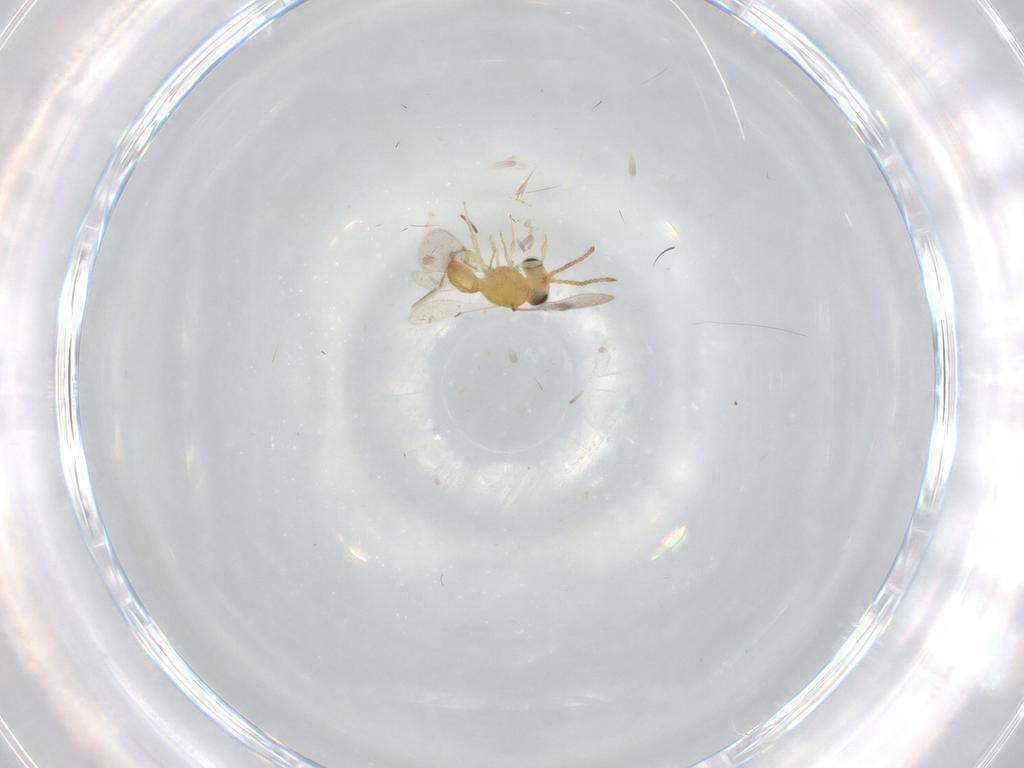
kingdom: Animalia
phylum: Arthropoda
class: Insecta
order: Hymenoptera
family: Scelionidae
